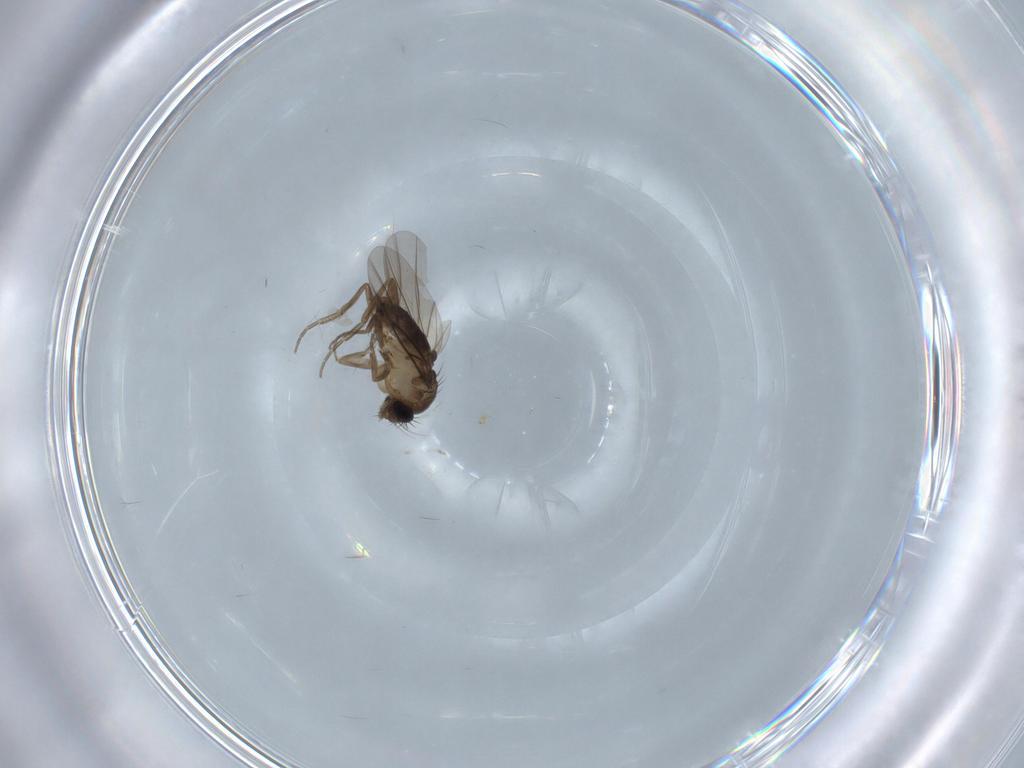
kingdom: Animalia
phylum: Arthropoda
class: Insecta
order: Diptera
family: Phoridae
